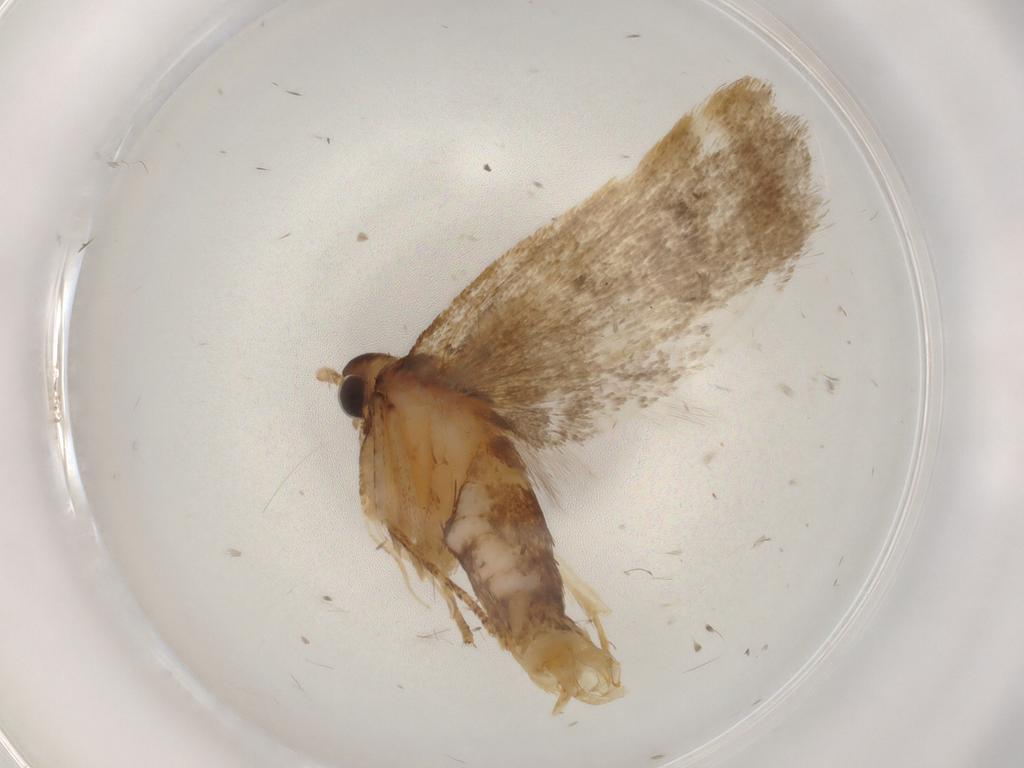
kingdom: Animalia
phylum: Arthropoda
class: Insecta
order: Lepidoptera
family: Lecithoceridae
